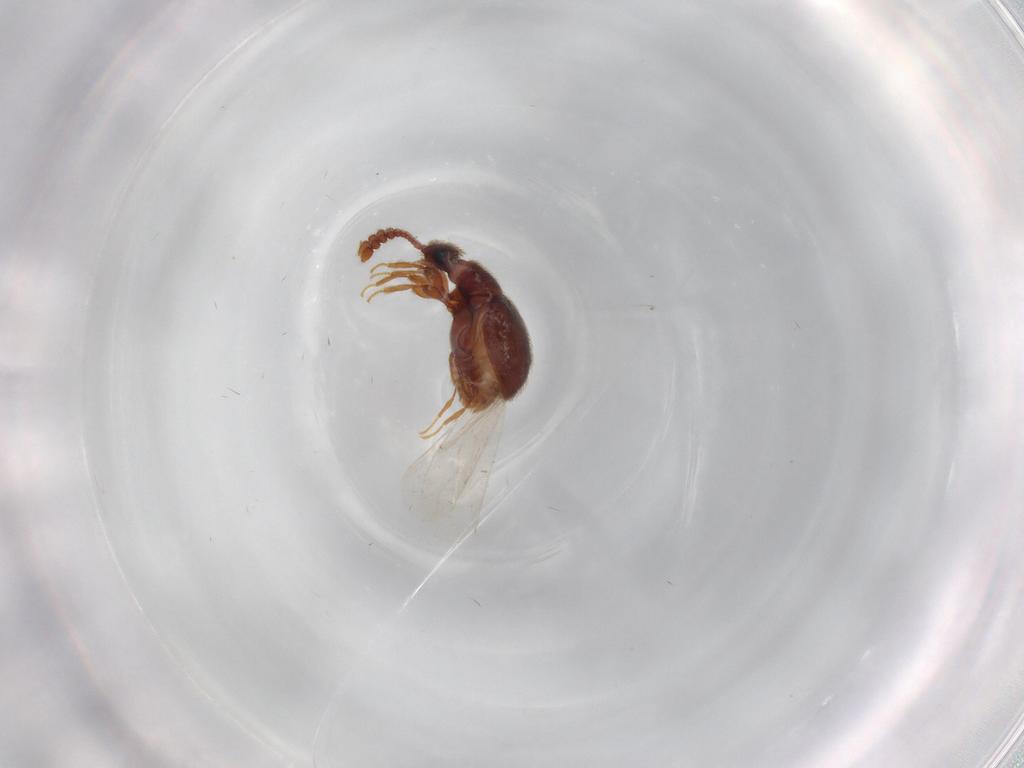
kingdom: Animalia
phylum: Arthropoda
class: Insecta
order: Coleoptera
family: Staphylinidae
